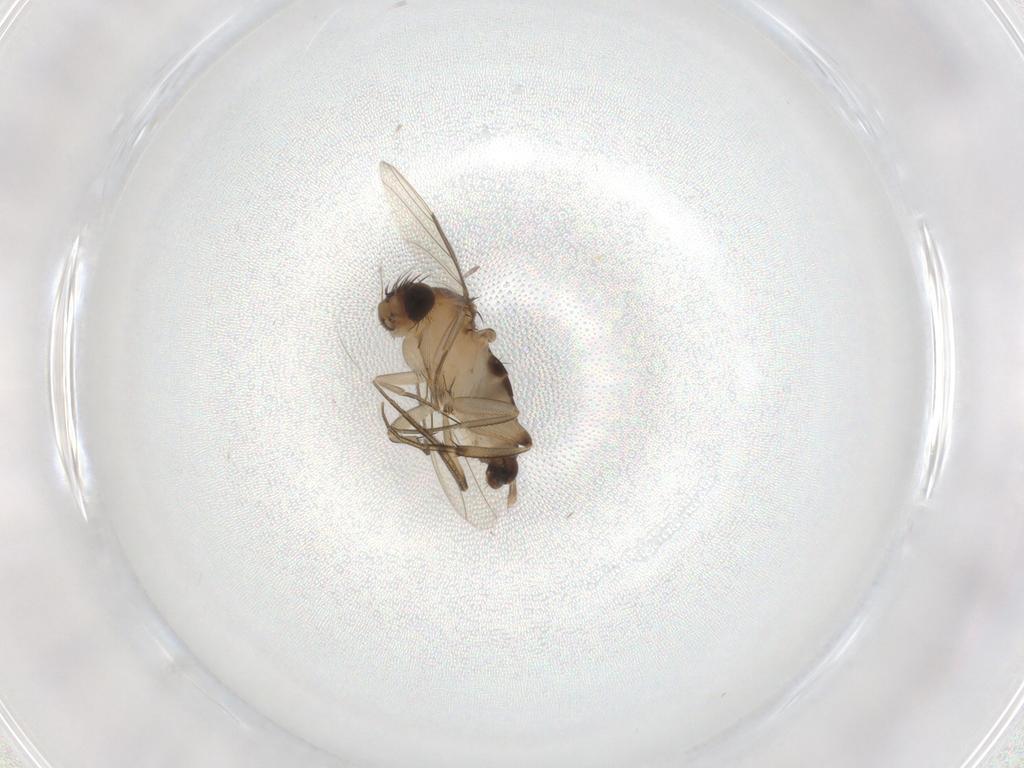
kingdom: Animalia
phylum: Arthropoda
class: Insecta
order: Diptera
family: Phoridae
